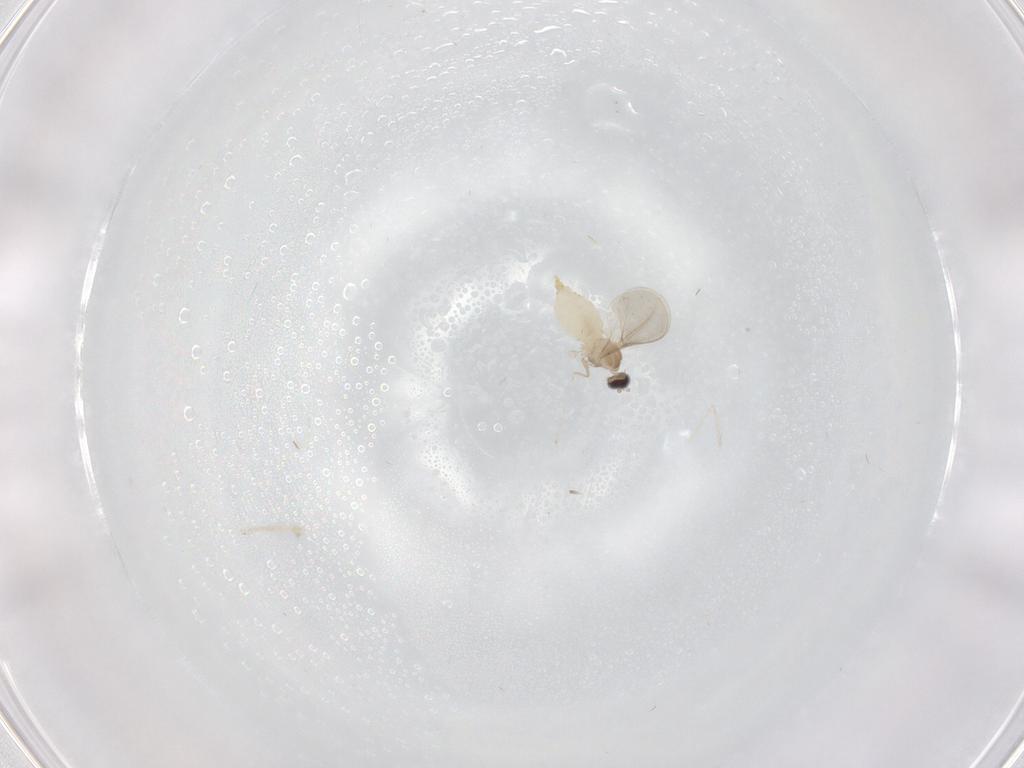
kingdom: Animalia
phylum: Arthropoda
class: Insecta
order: Diptera
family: Cecidomyiidae
